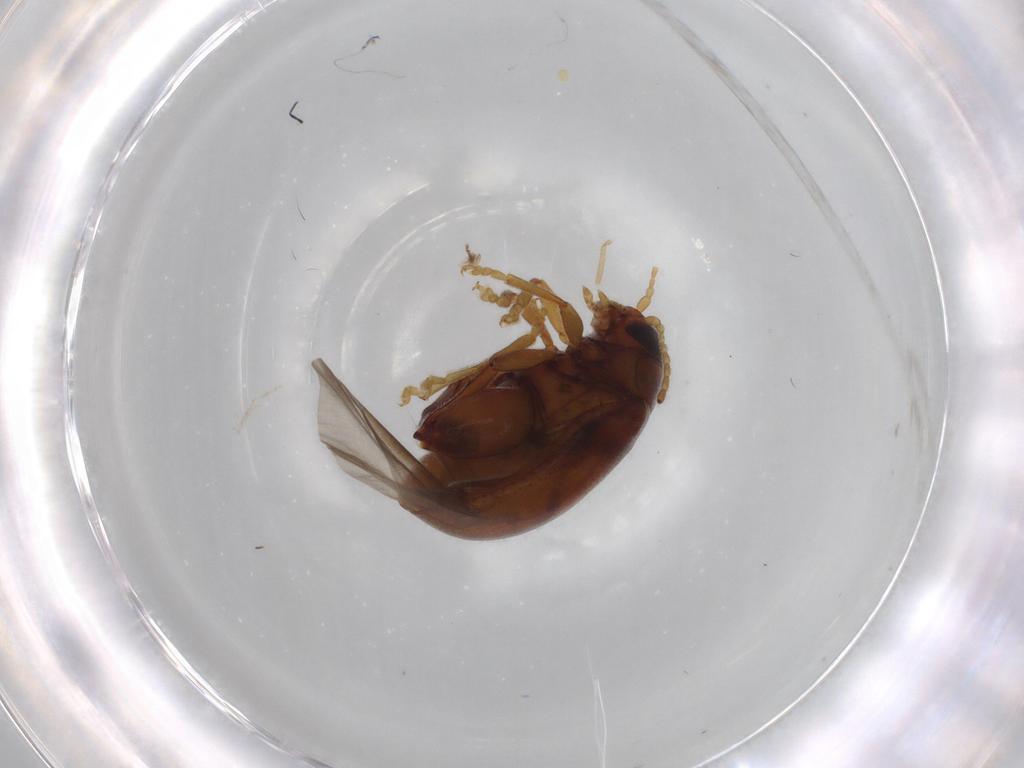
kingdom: Animalia
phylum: Arthropoda
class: Insecta
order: Coleoptera
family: Chrysomelidae
